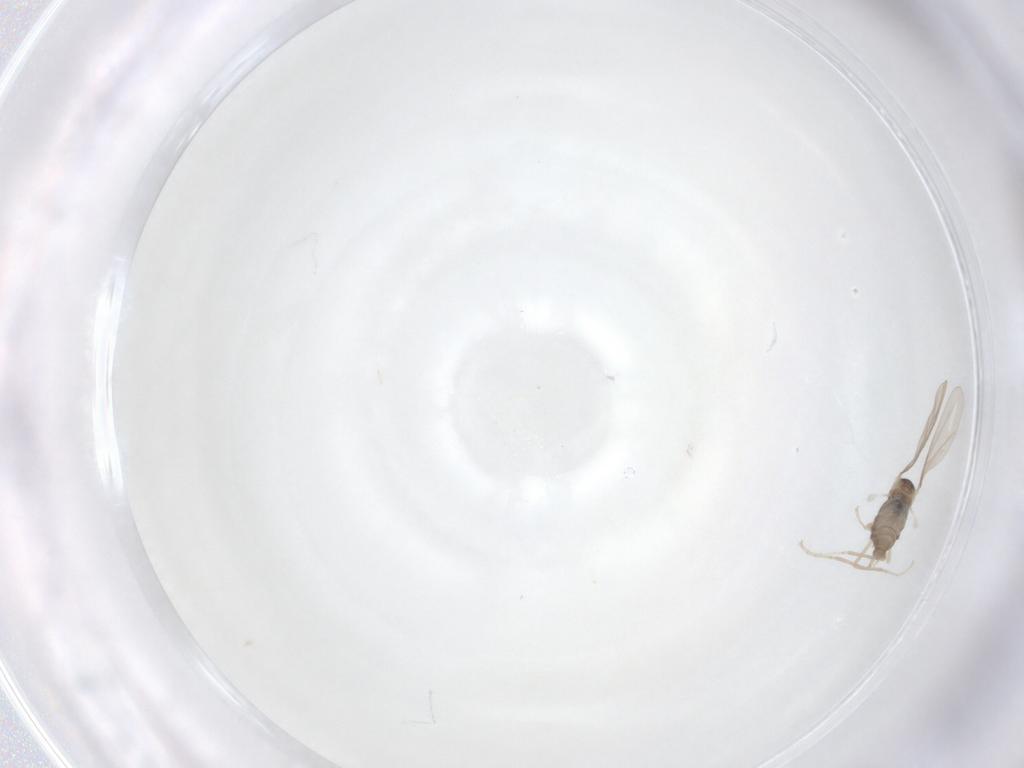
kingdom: Animalia
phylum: Arthropoda
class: Insecta
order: Diptera
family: Cecidomyiidae
